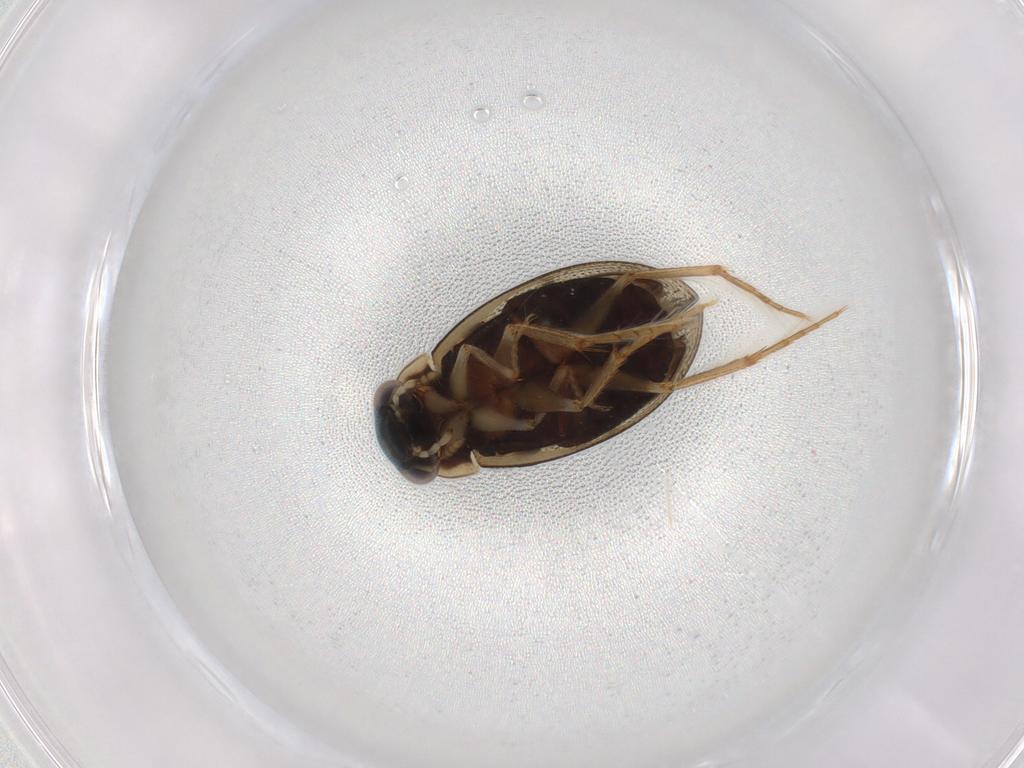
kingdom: Animalia
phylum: Arthropoda
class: Insecta
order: Coleoptera
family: Hydrophilidae
